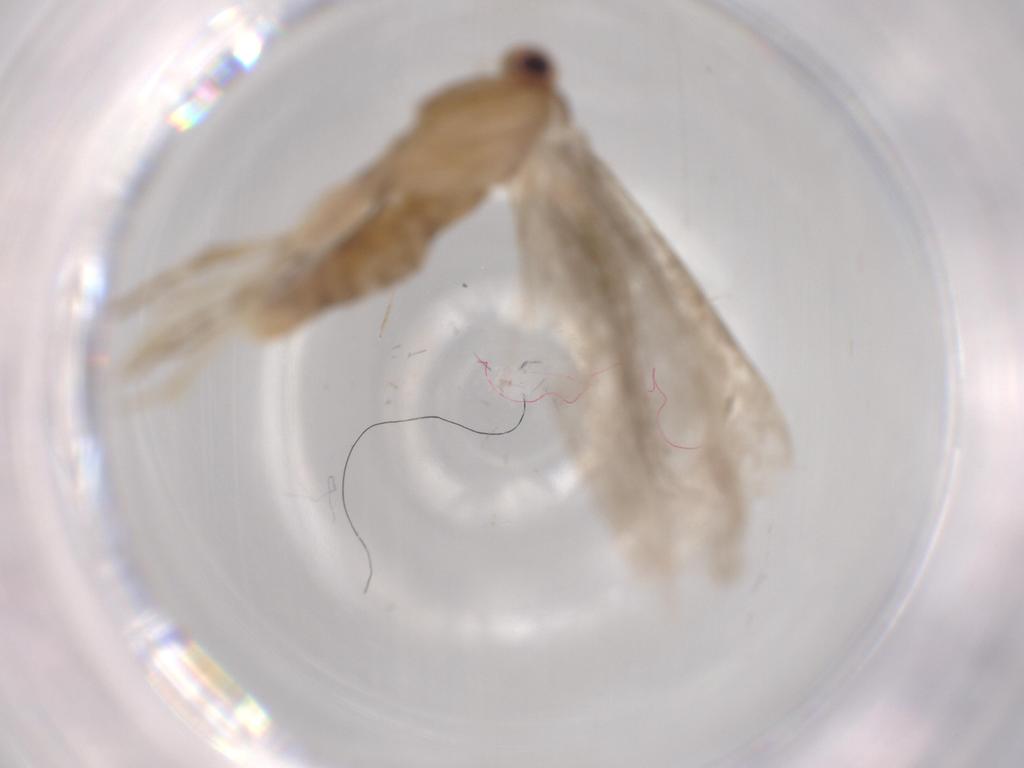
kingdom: Animalia
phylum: Arthropoda
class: Insecta
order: Lepidoptera
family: Argyresthiidae
